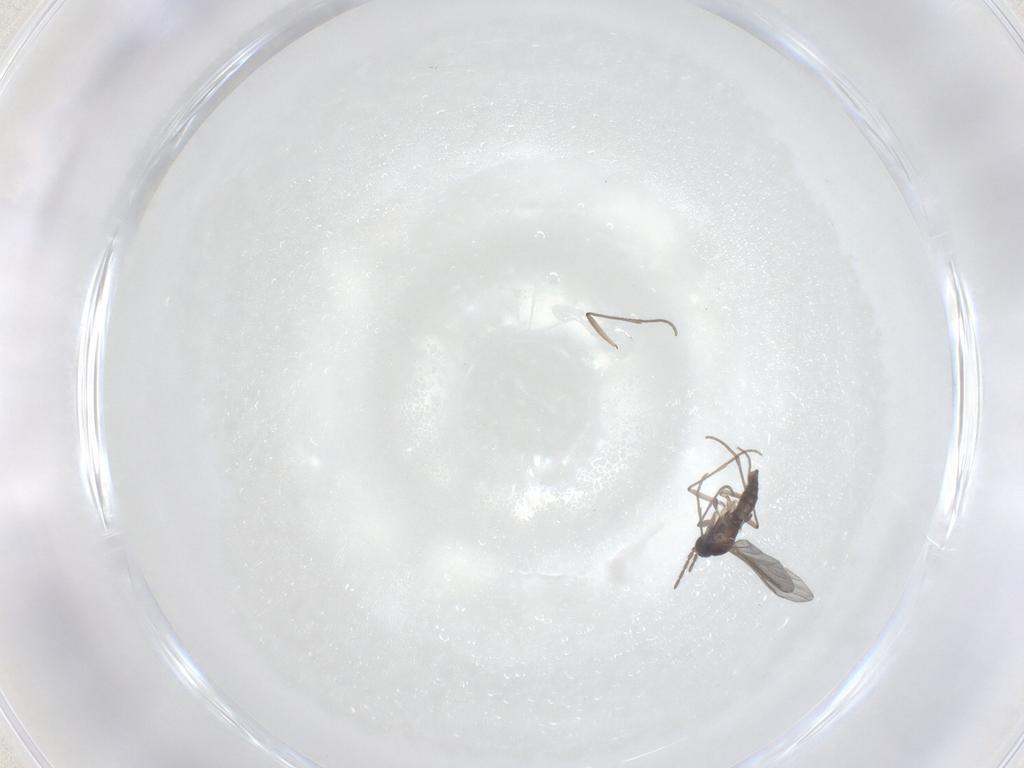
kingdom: Animalia
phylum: Arthropoda
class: Insecta
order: Diptera
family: Sciaridae
